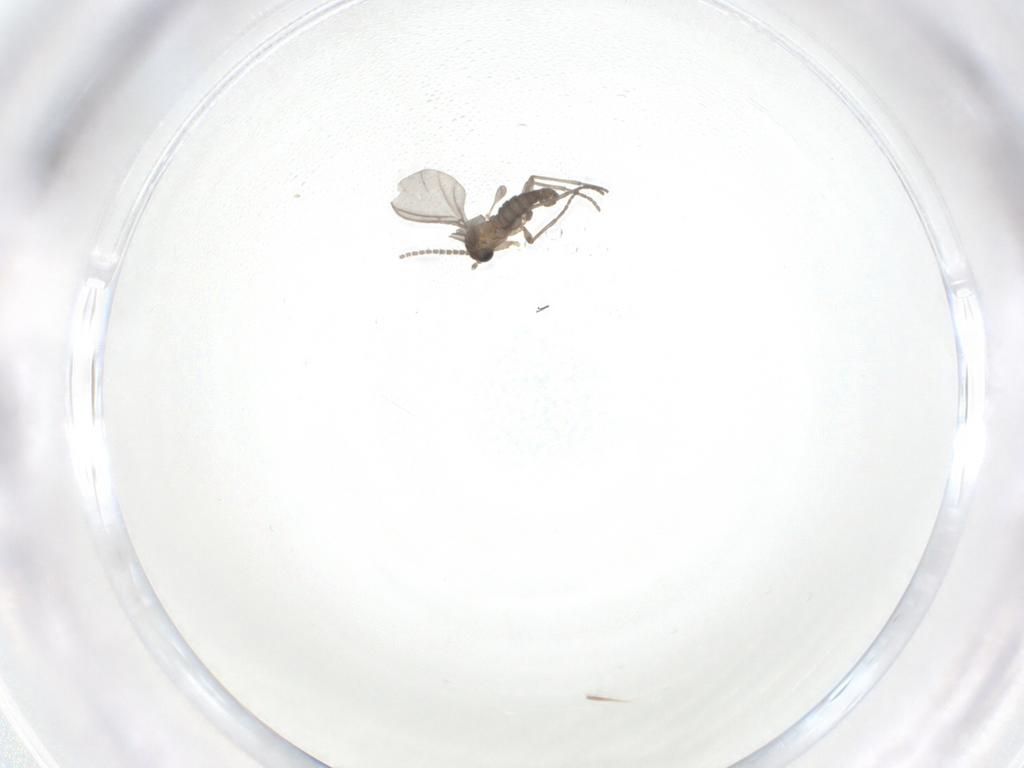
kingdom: Animalia
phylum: Arthropoda
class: Insecta
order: Diptera
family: Sciaridae
